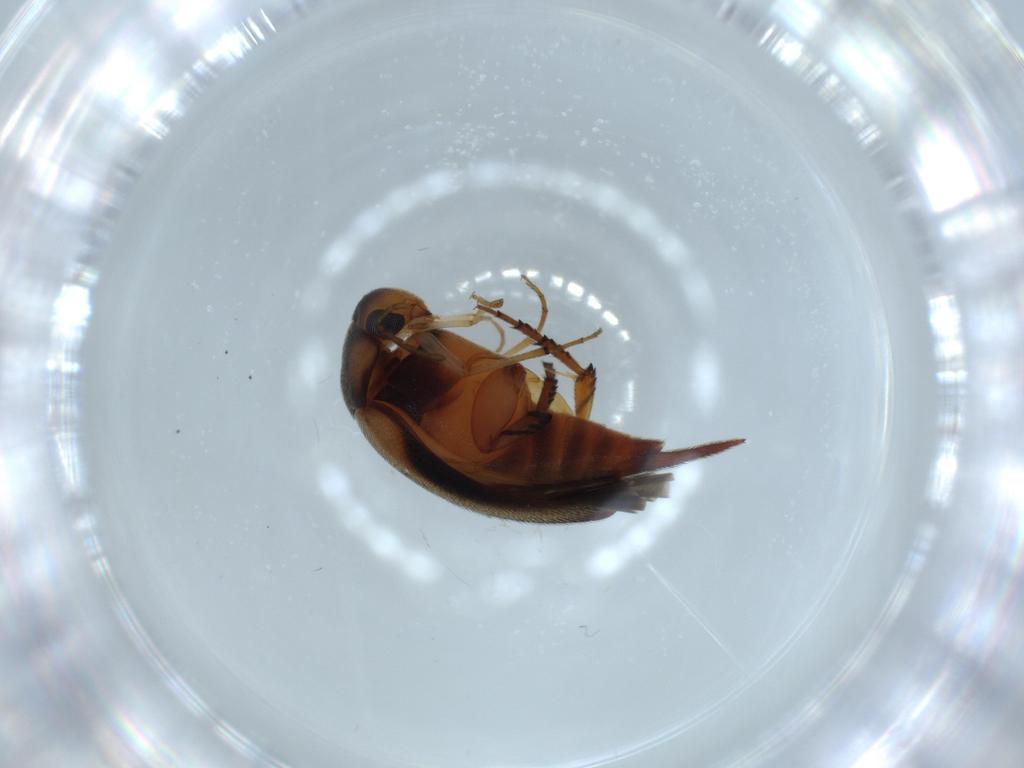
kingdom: Animalia
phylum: Arthropoda
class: Insecta
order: Coleoptera
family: Mordellidae
